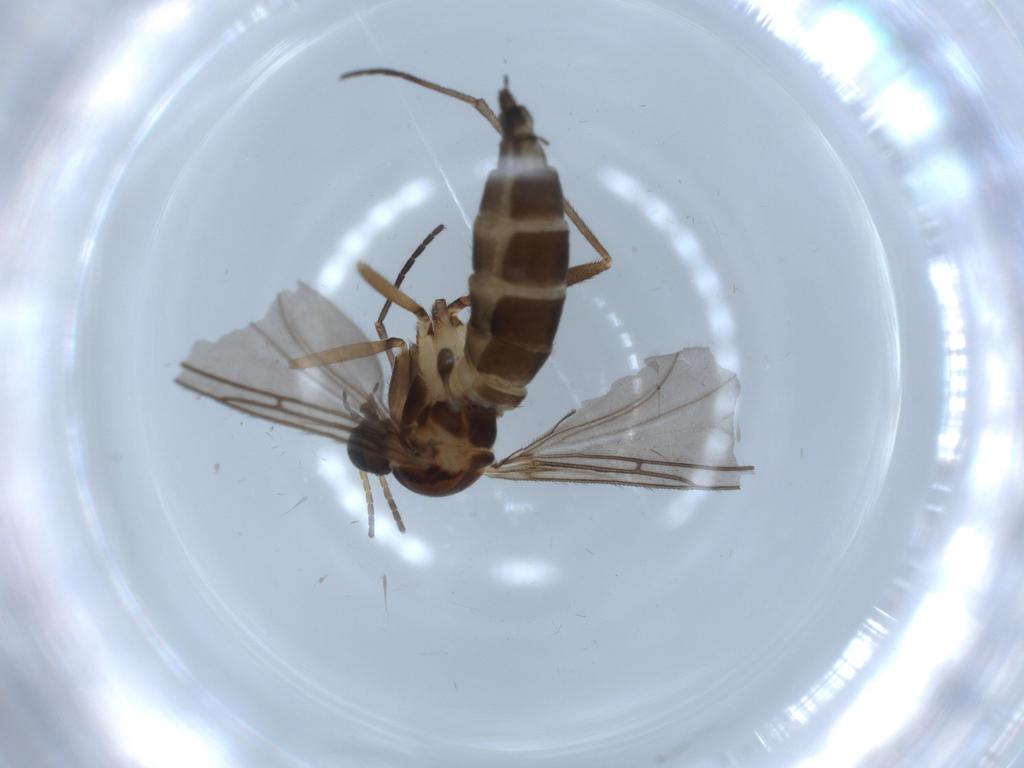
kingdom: Animalia
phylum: Arthropoda
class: Insecta
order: Diptera
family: Sciaridae
